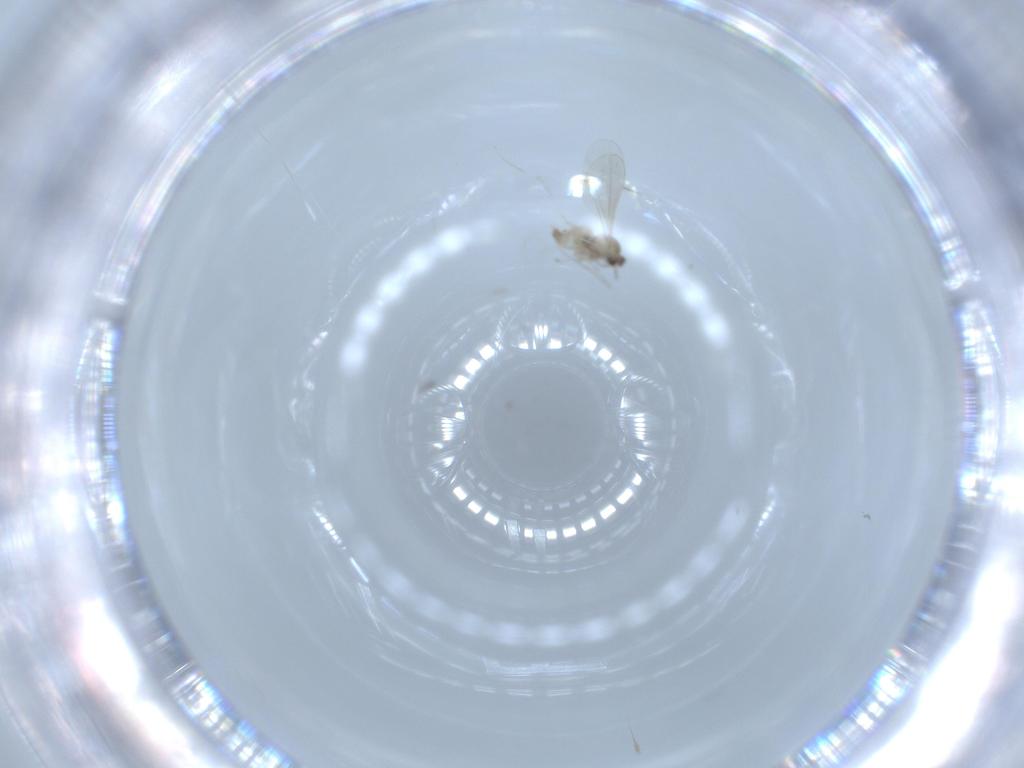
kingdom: Animalia
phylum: Arthropoda
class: Insecta
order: Diptera
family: Cecidomyiidae
